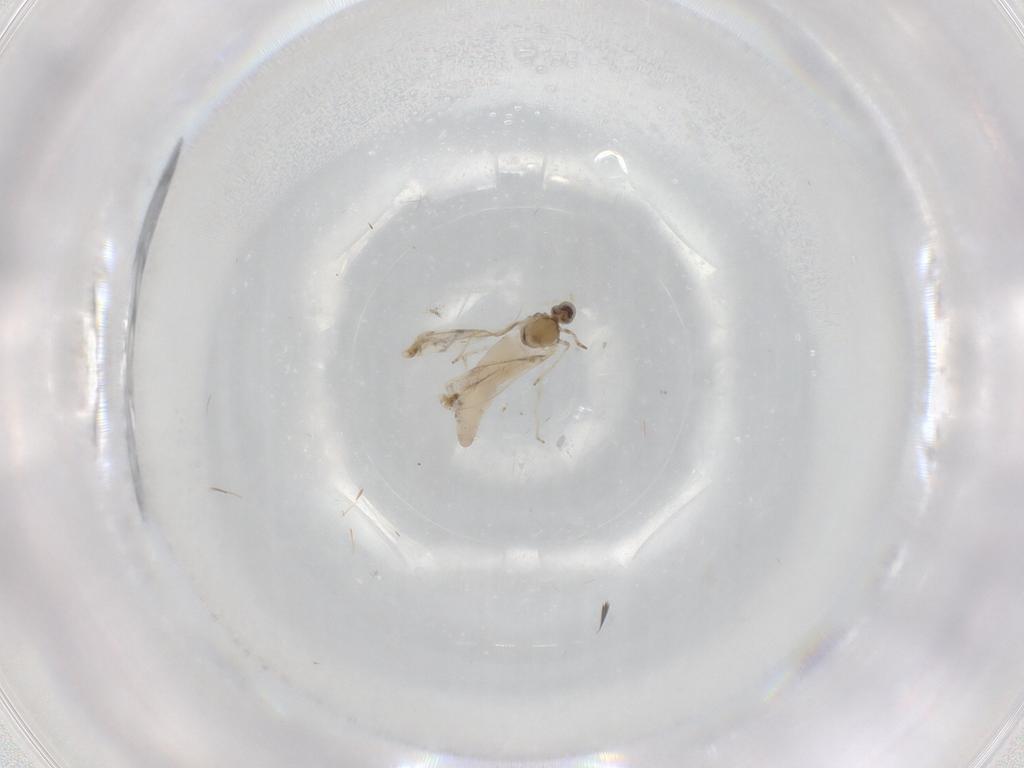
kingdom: Animalia
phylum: Arthropoda
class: Insecta
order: Diptera
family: Cecidomyiidae
